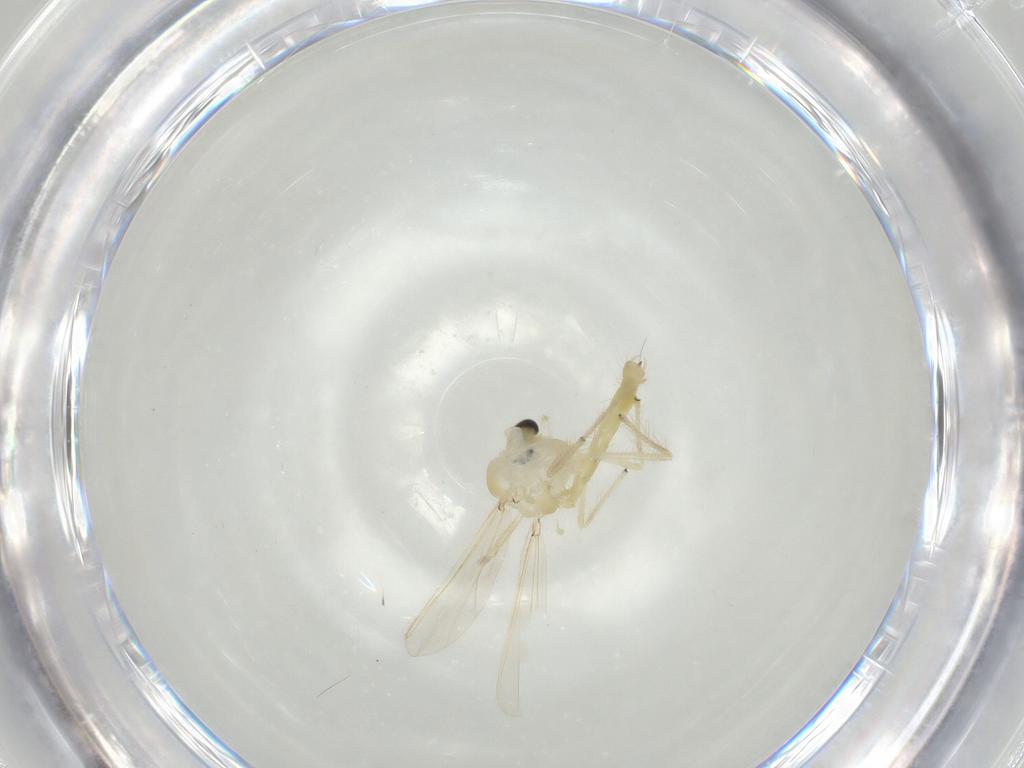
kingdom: Animalia
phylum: Arthropoda
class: Insecta
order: Diptera
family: Chironomidae
